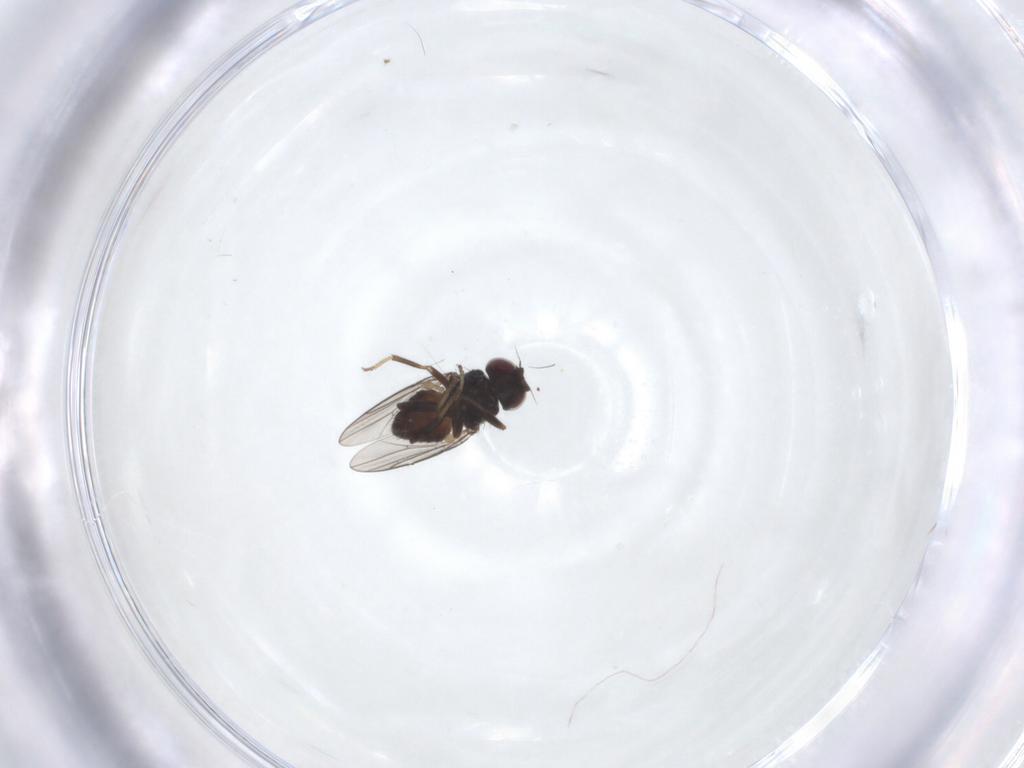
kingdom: Animalia
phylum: Arthropoda
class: Insecta
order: Diptera
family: Chloropidae
